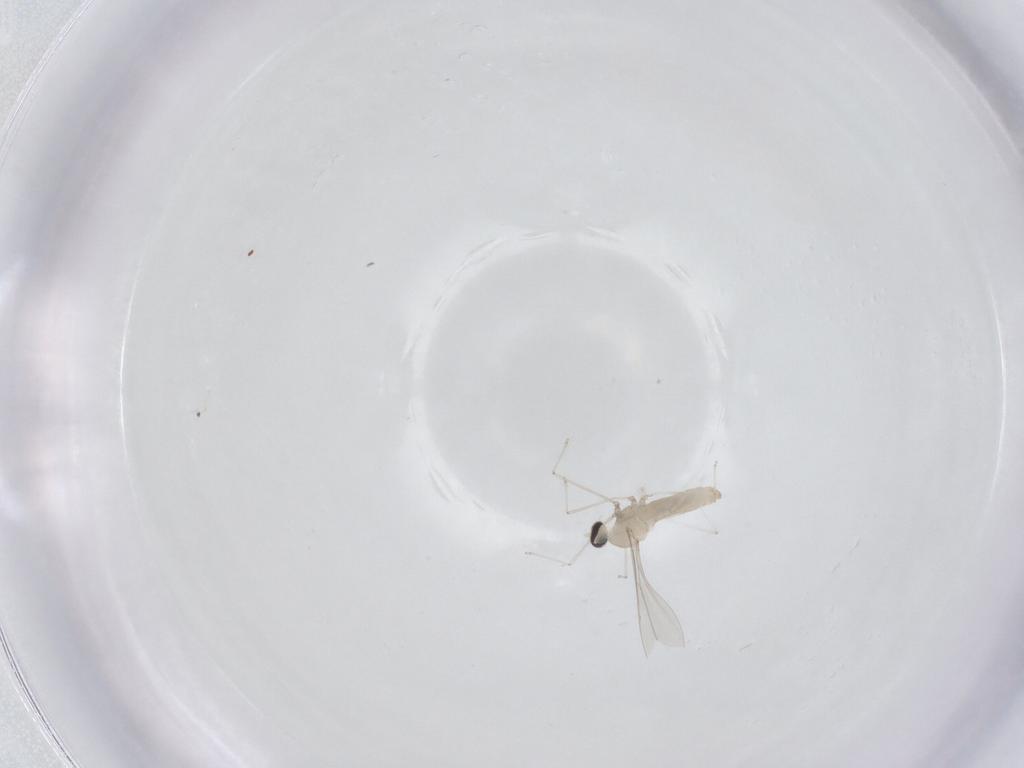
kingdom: Animalia
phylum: Arthropoda
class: Insecta
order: Diptera
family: Cecidomyiidae
